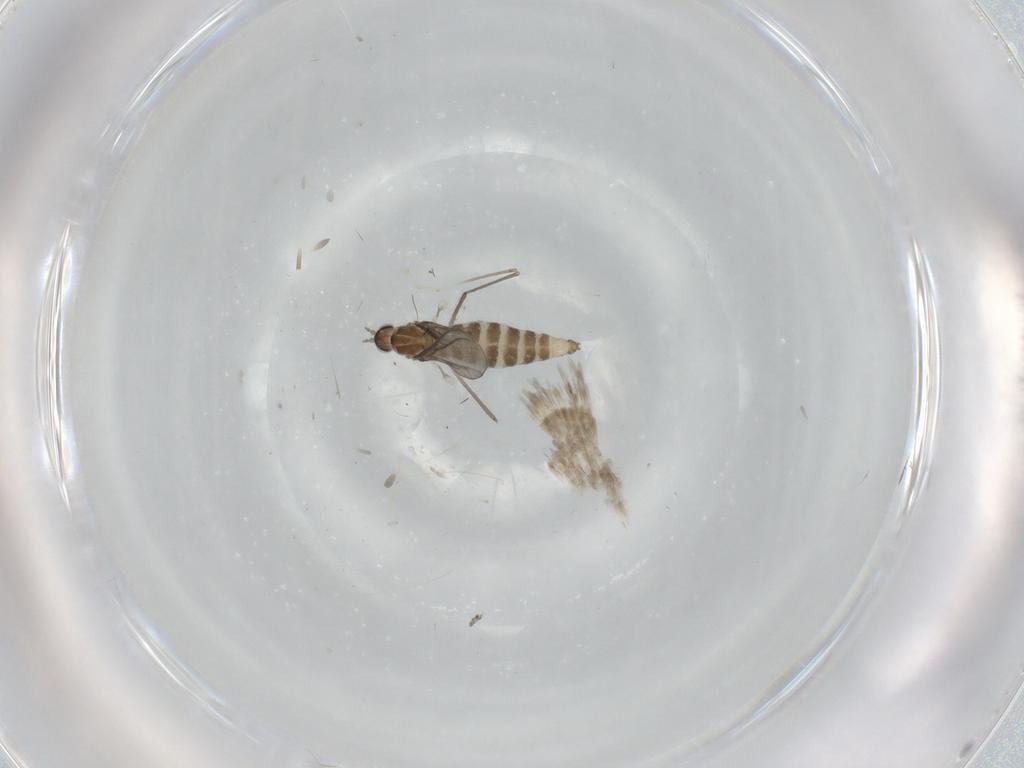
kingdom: Animalia
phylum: Arthropoda
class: Insecta
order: Diptera
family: Cecidomyiidae
